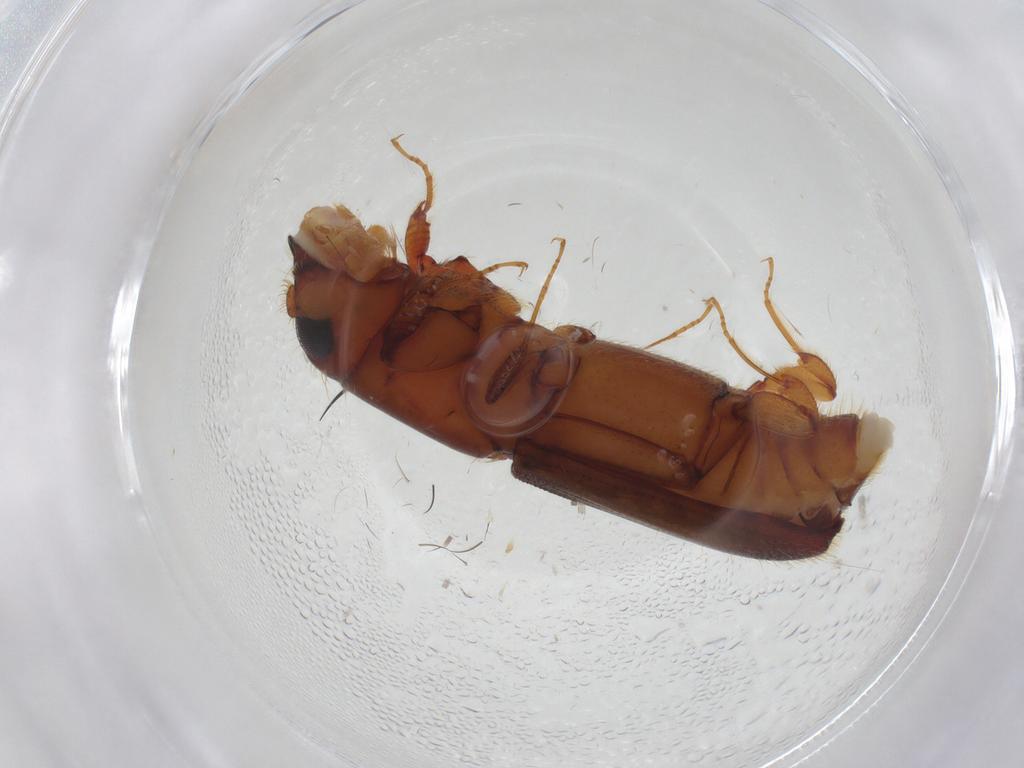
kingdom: Animalia
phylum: Arthropoda
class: Insecta
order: Coleoptera
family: Curculionidae
